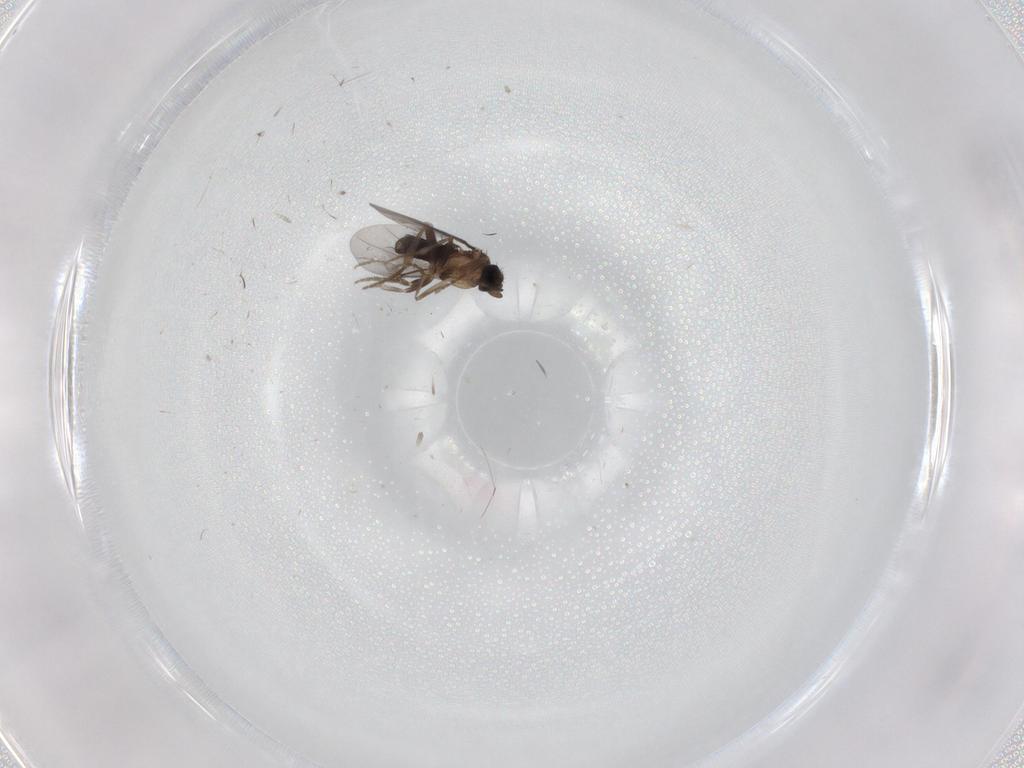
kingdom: Animalia
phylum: Arthropoda
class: Insecta
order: Diptera
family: Chironomidae
